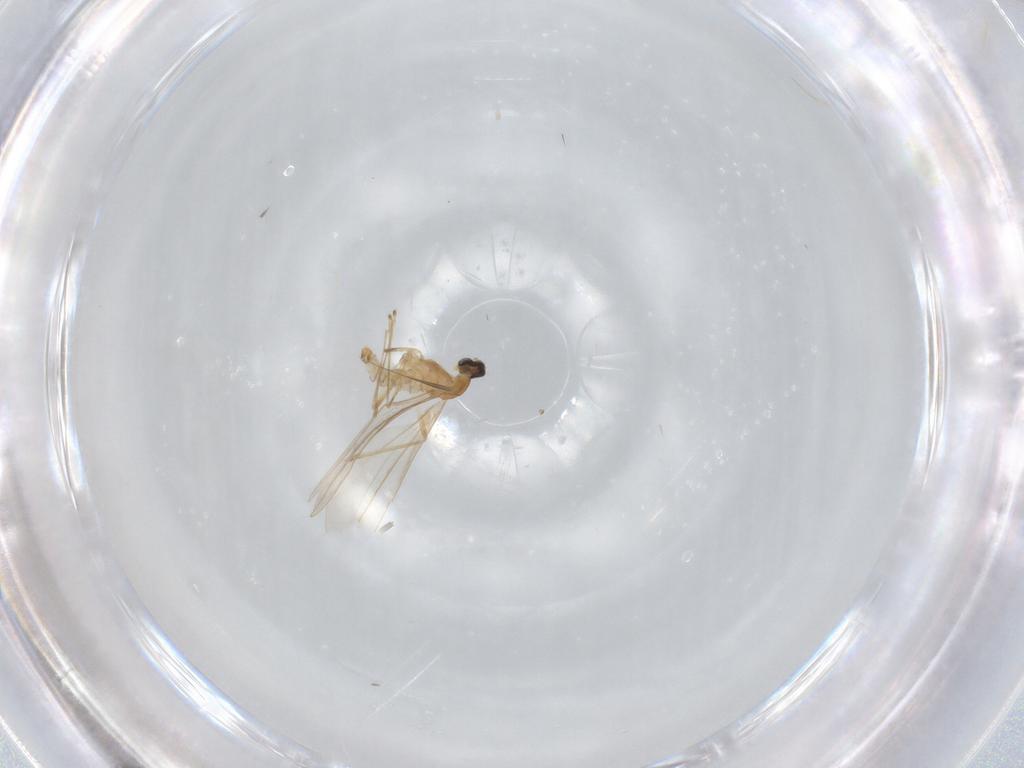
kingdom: Animalia
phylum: Arthropoda
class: Insecta
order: Diptera
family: Cecidomyiidae
